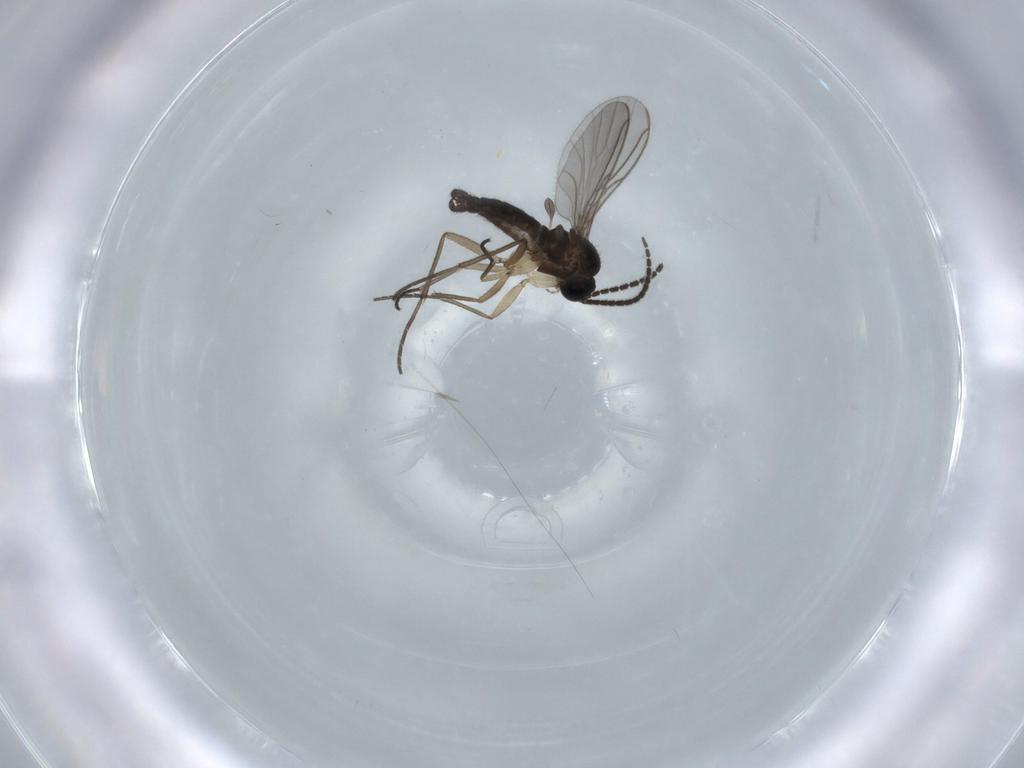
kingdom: Animalia
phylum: Arthropoda
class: Insecta
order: Diptera
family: Sciaridae
